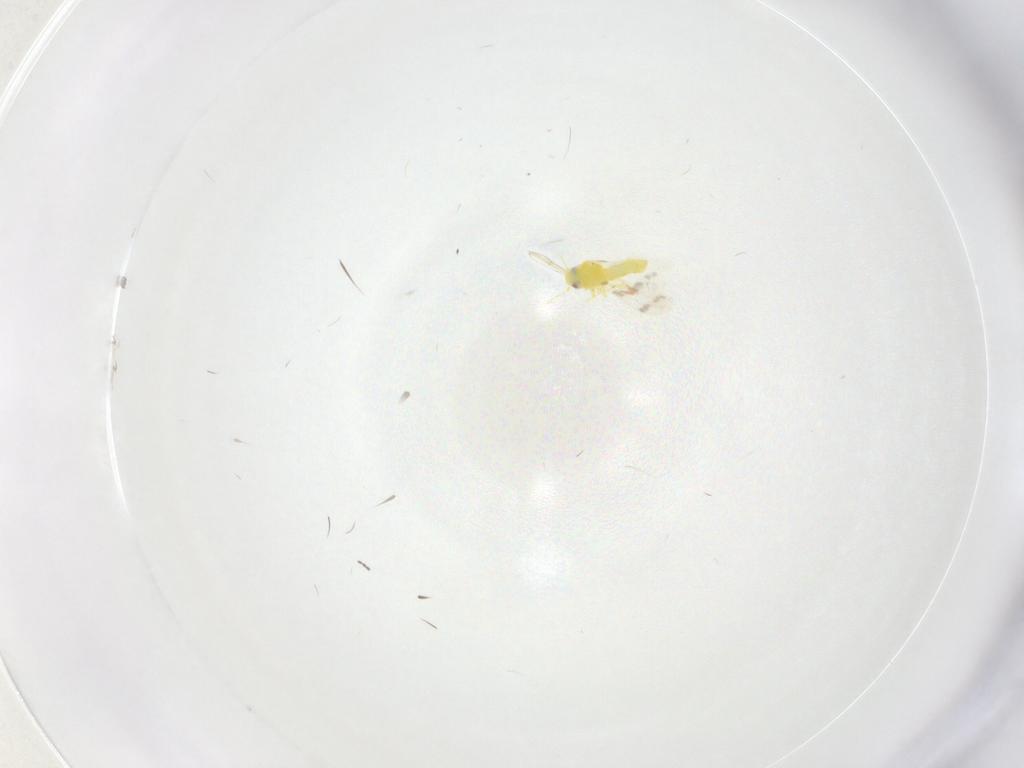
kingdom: Animalia
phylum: Arthropoda
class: Insecta
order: Hemiptera
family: Aleyrodidae
